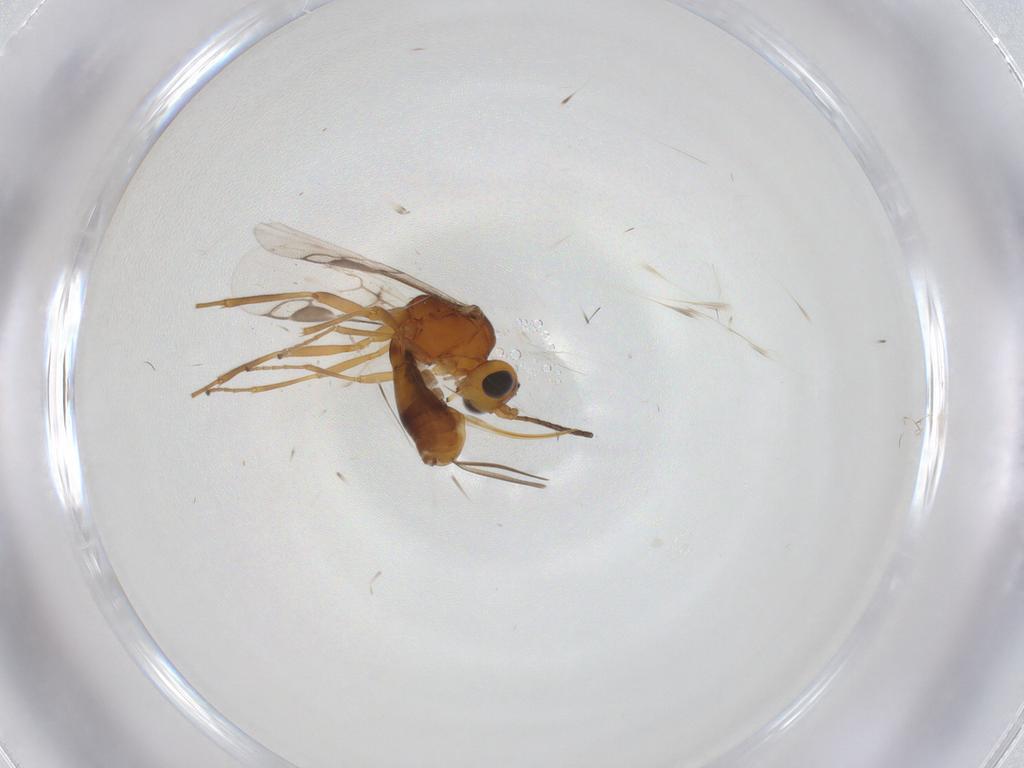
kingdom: Animalia
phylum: Arthropoda
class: Insecta
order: Hymenoptera
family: Braconidae
